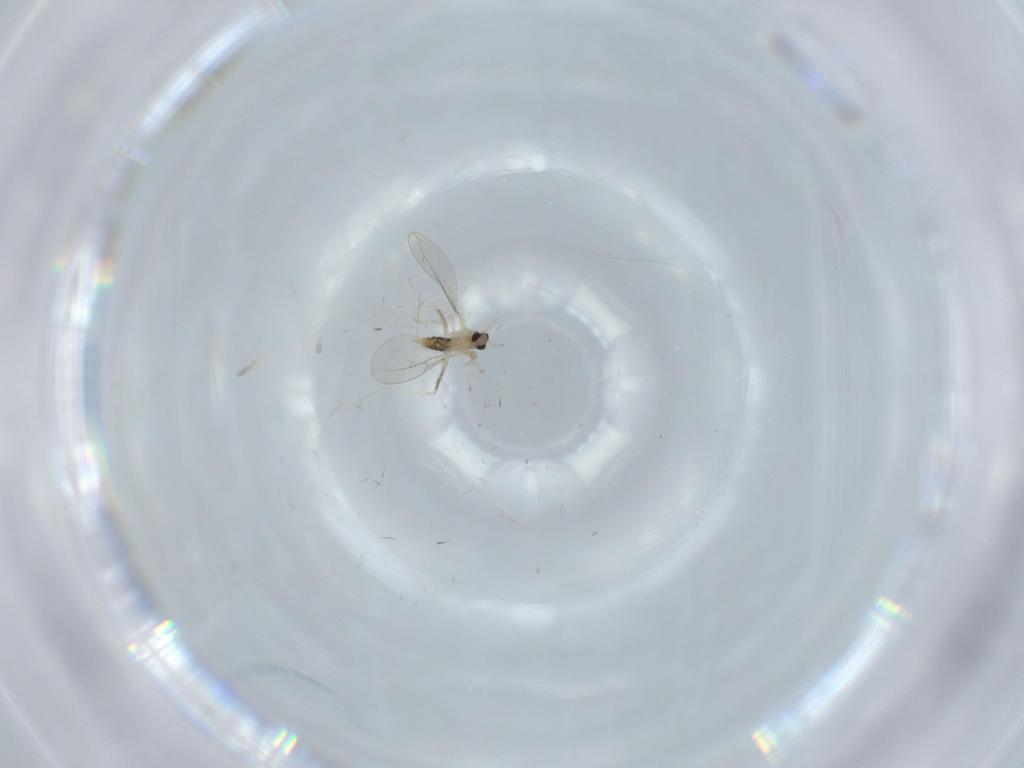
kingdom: Animalia
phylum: Arthropoda
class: Insecta
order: Diptera
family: Cecidomyiidae
